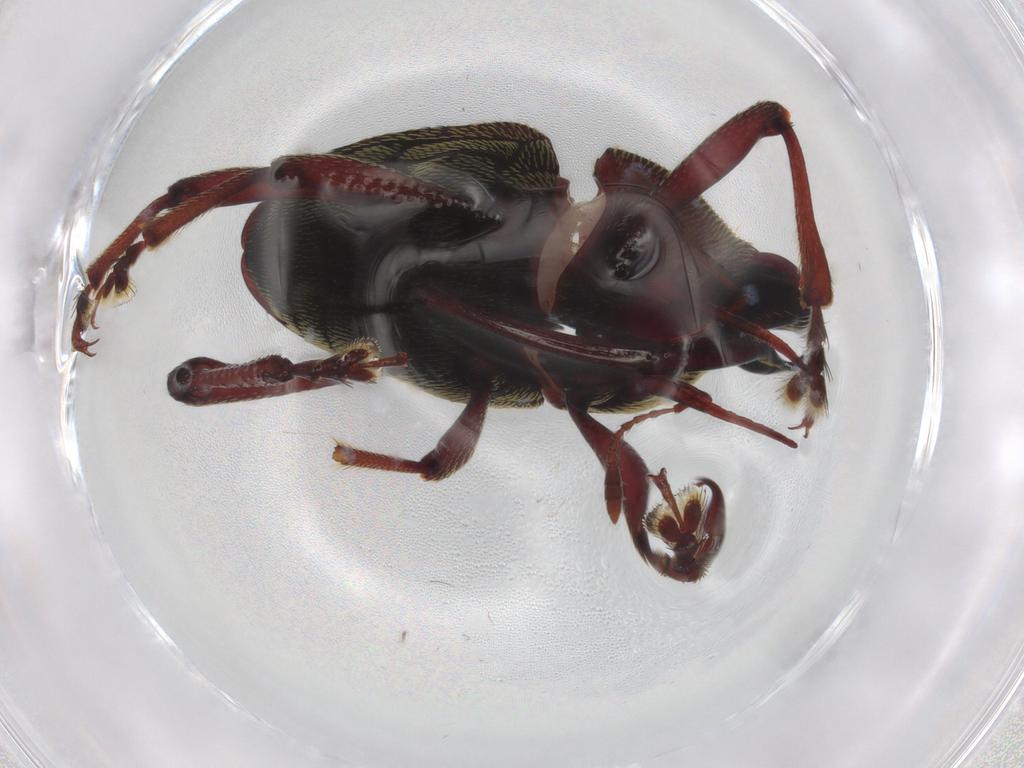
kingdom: Animalia
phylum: Arthropoda
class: Insecta
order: Coleoptera
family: Curculionidae
